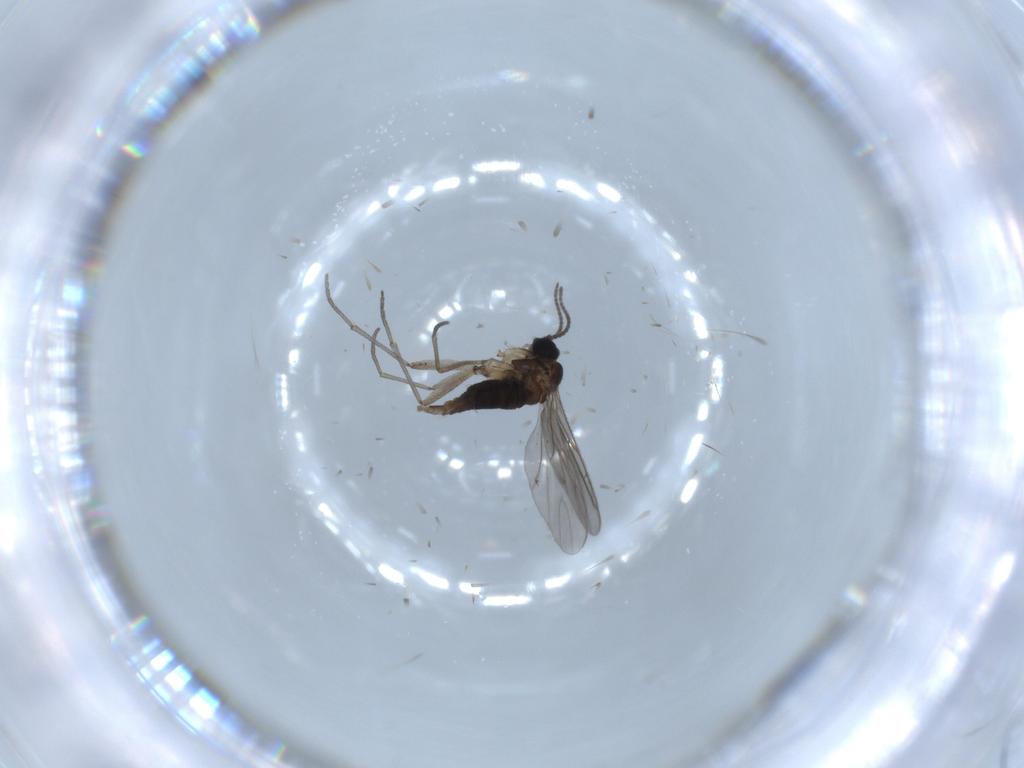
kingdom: Animalia
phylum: Arthropoda
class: Insecta
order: Diptera
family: Sciaridae
